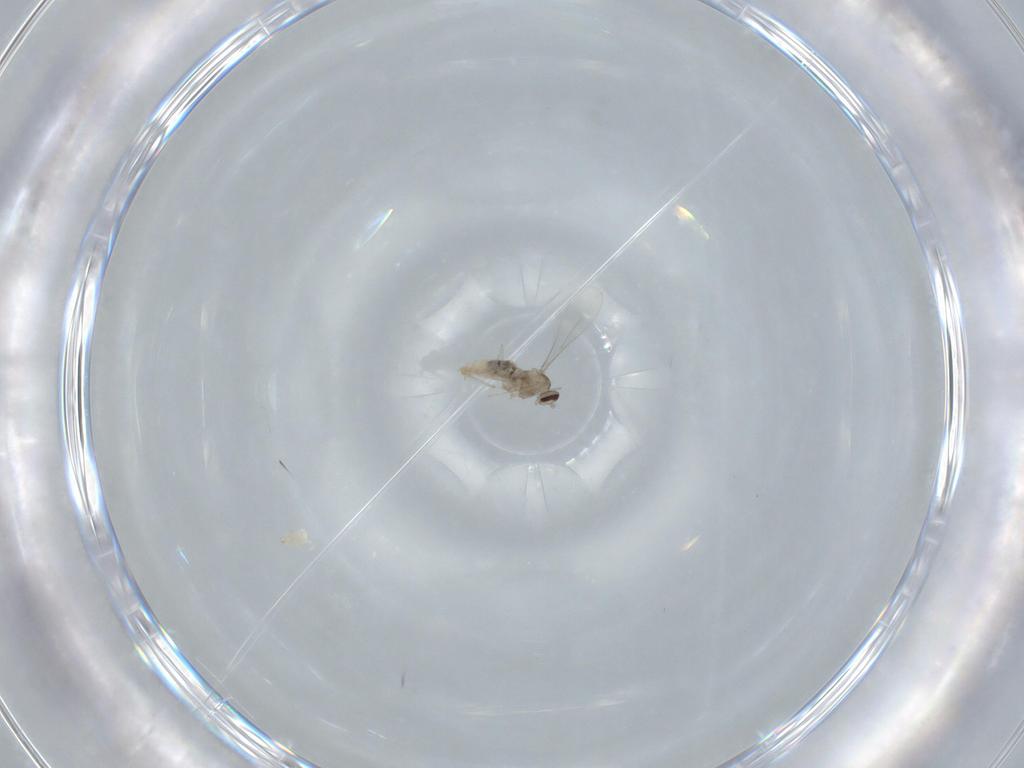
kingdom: Animalia
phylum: Arthropoda
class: Insecta
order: Diptera
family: Cecidomyiidae
